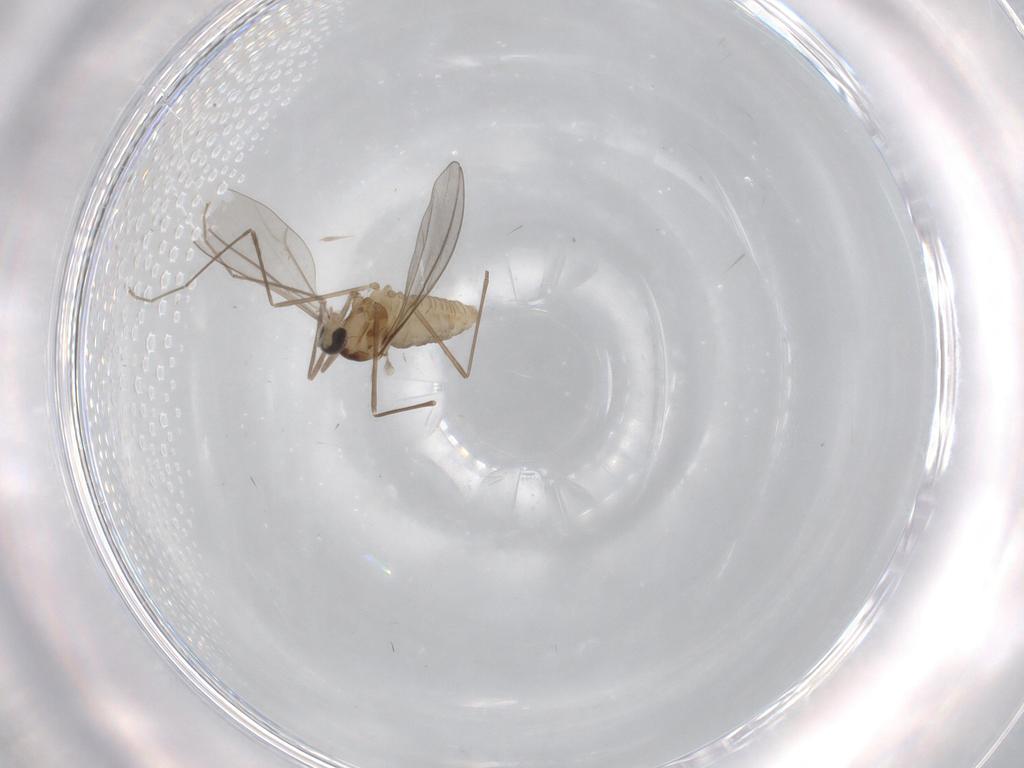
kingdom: Animalia
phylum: Arthropoda
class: Insecta
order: Diptera
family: Cecidomyiidae
